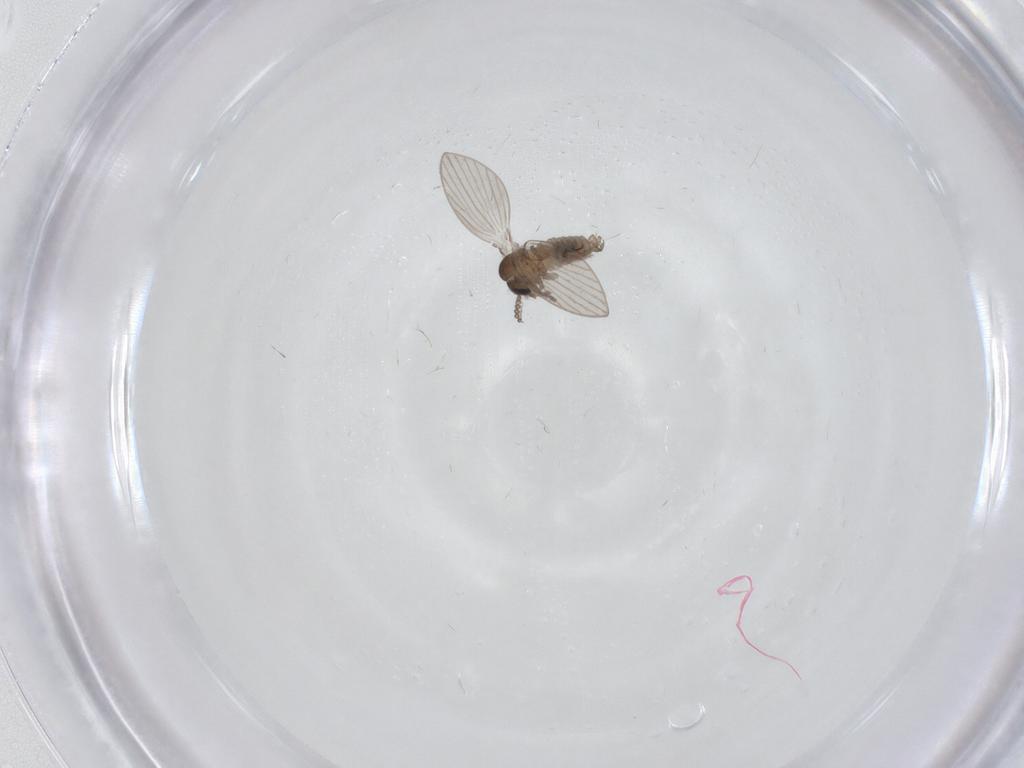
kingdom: Animalia
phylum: Arthropoda
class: Insecta
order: Diptera
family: Psychodidae
